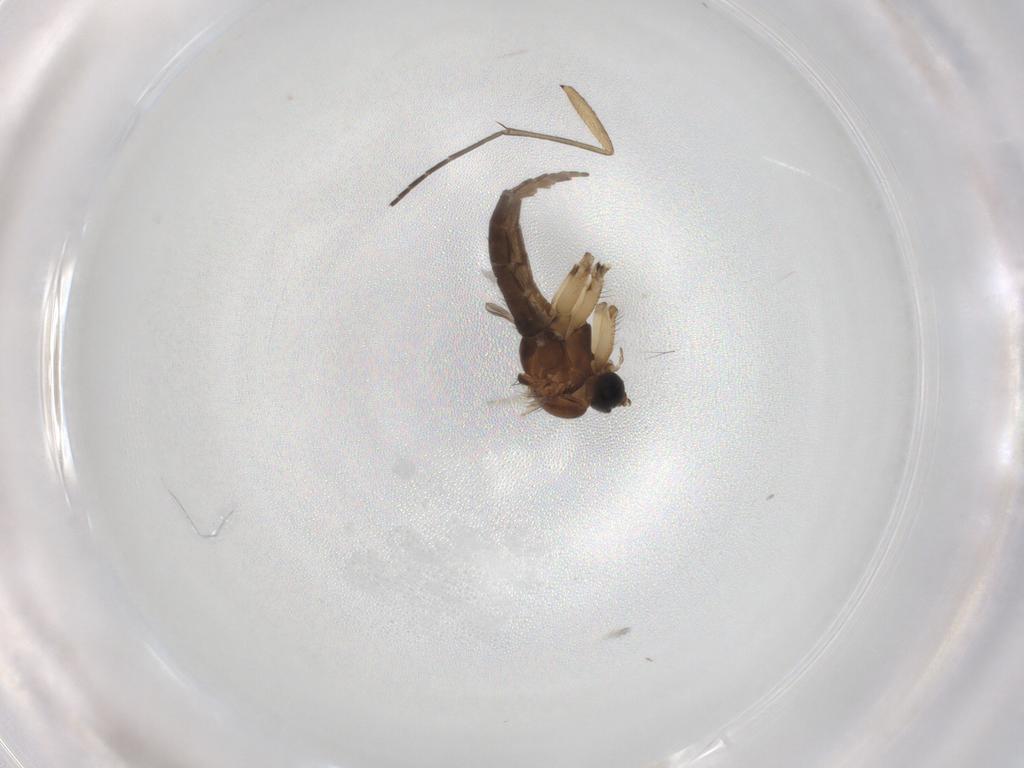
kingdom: Animalia
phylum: Arthropoda
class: Insecta
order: Diptera
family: Sciaridae
